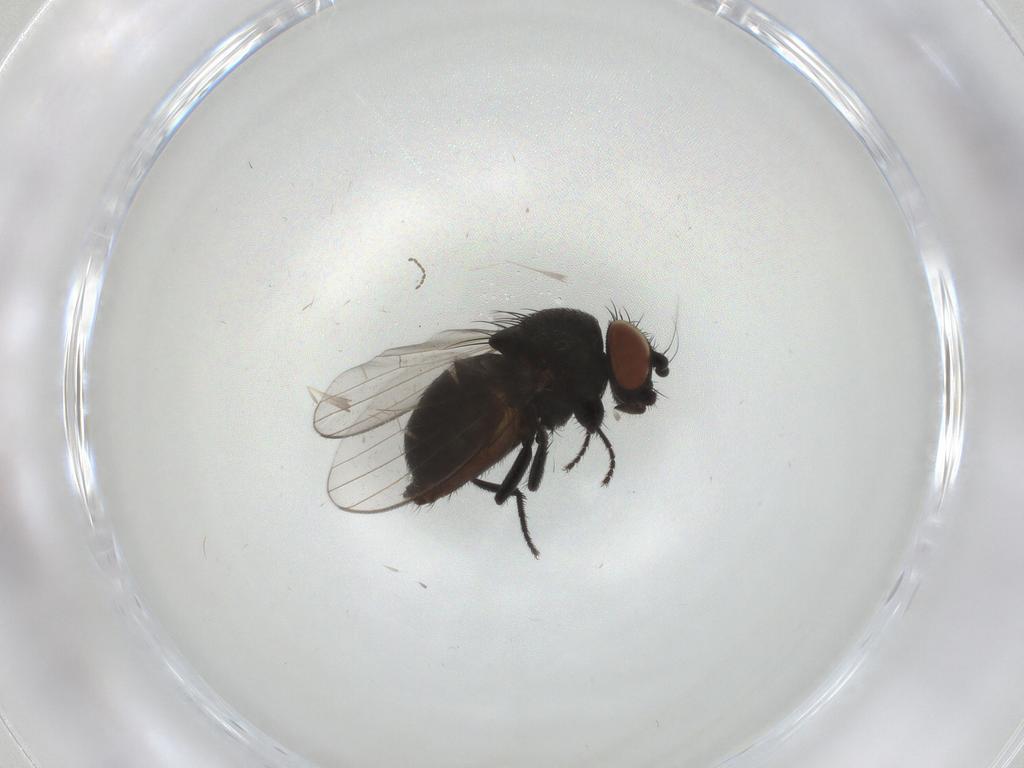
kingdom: Animalia
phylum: Arthropoda
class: Insecta
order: Diptera
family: Milichiidae
